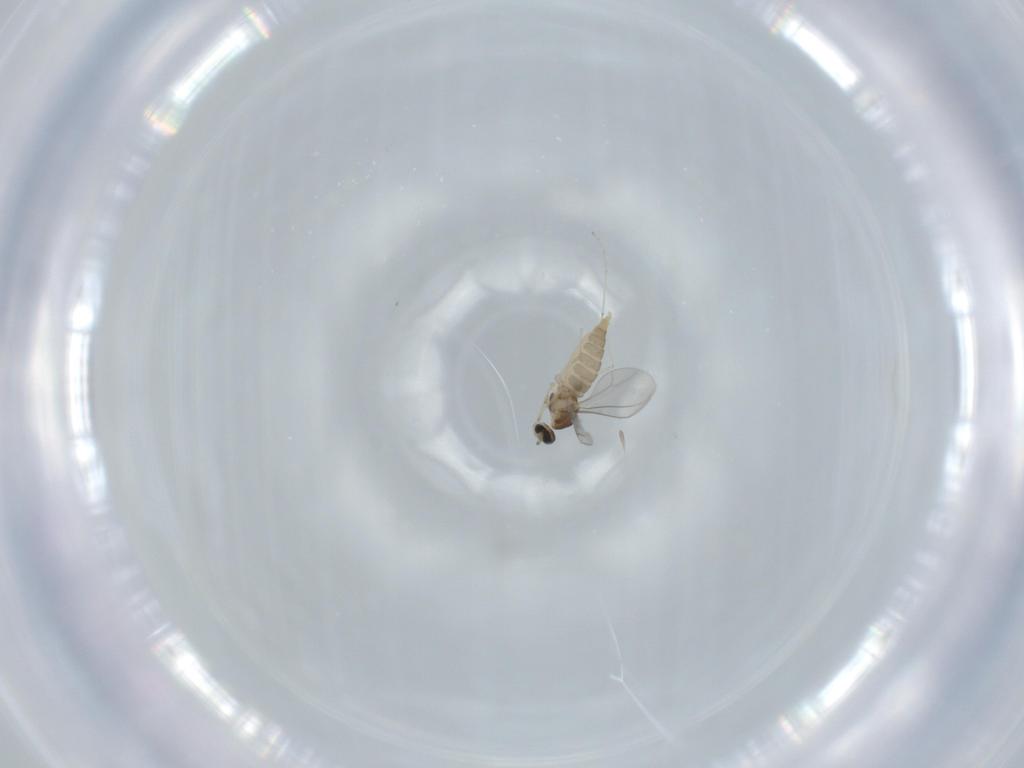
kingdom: Animalia
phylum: Arthropoda
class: Insecta
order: Diptera
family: Cecidomyiidae
